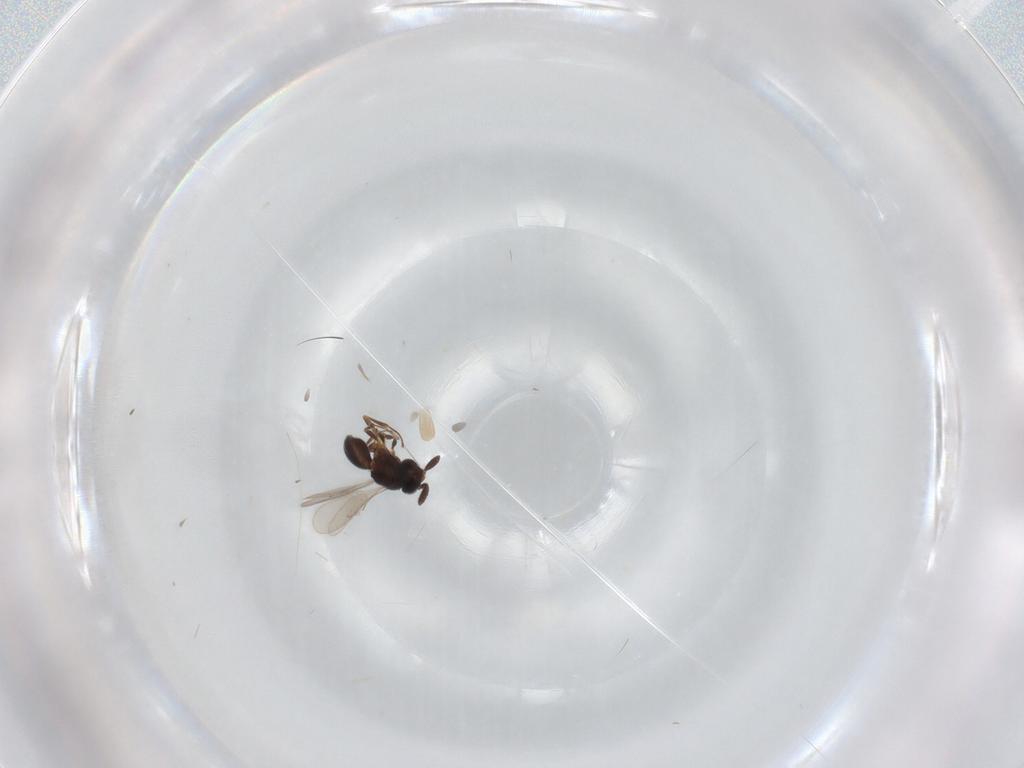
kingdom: Animalia
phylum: Arthropoda
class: Insecta
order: Hymenoptera
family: Scelionidae
